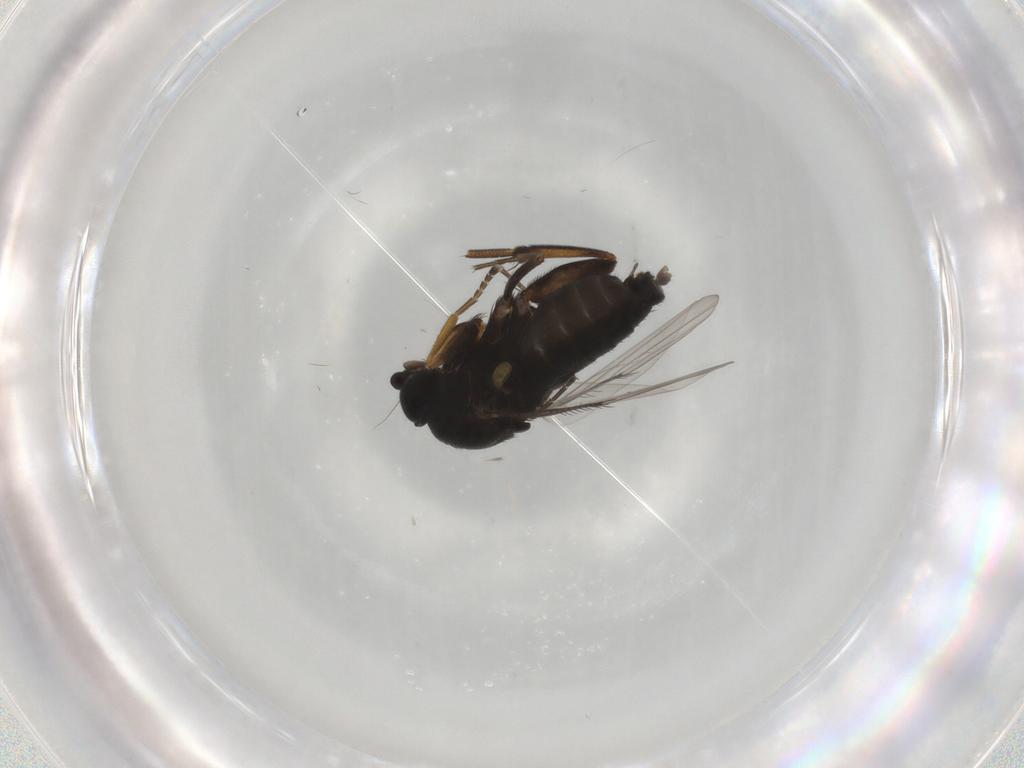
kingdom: Animalia
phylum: Arthropoda
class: Insecta
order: Diptera
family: Phoridae
